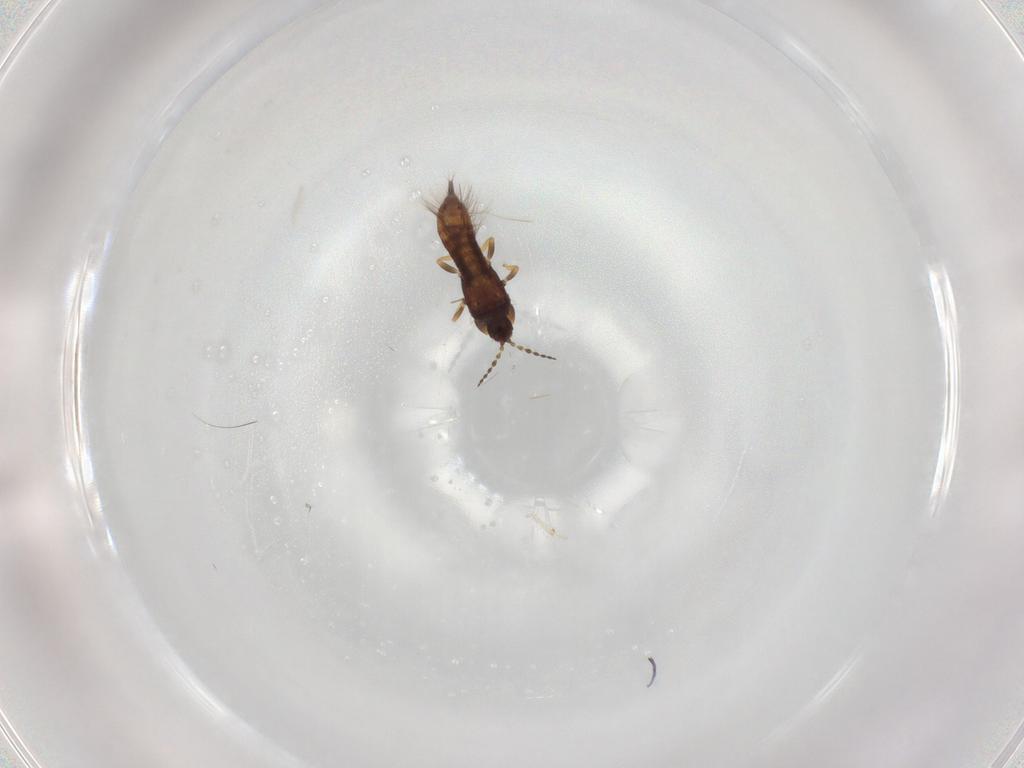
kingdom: Animalia
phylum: Arthropoda
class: Insecta
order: Thysanoptera
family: Phlaeothripidae
